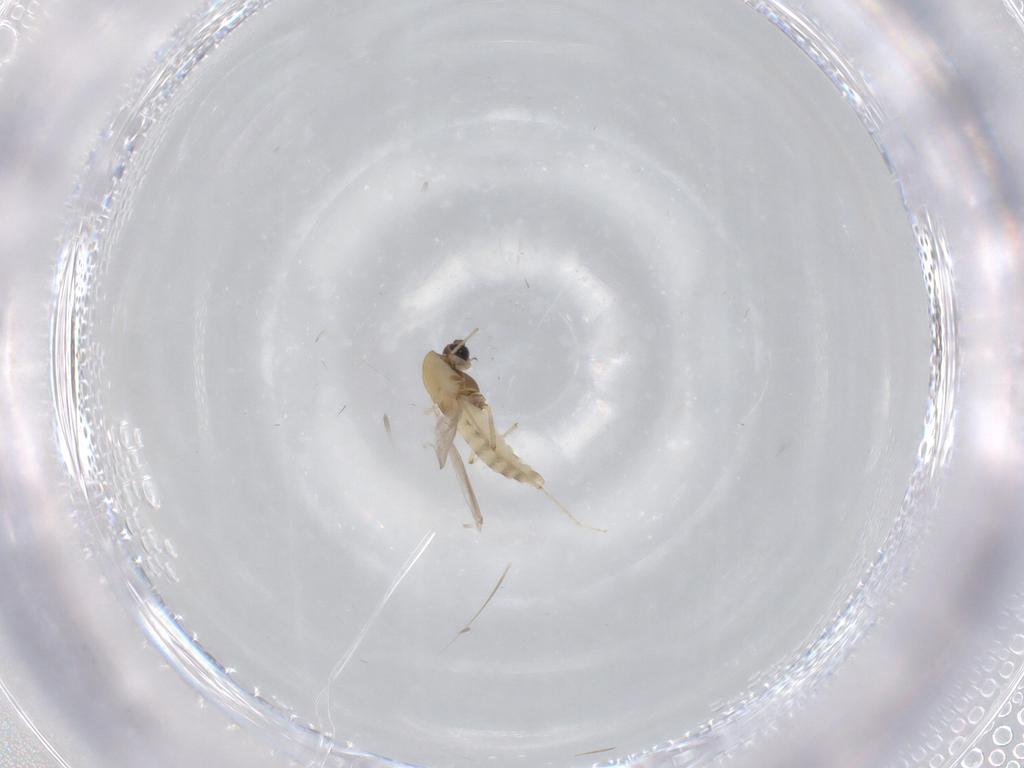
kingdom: Animalia
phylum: Arthropoda
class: Insecta
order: Diptera
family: Chironomidae
